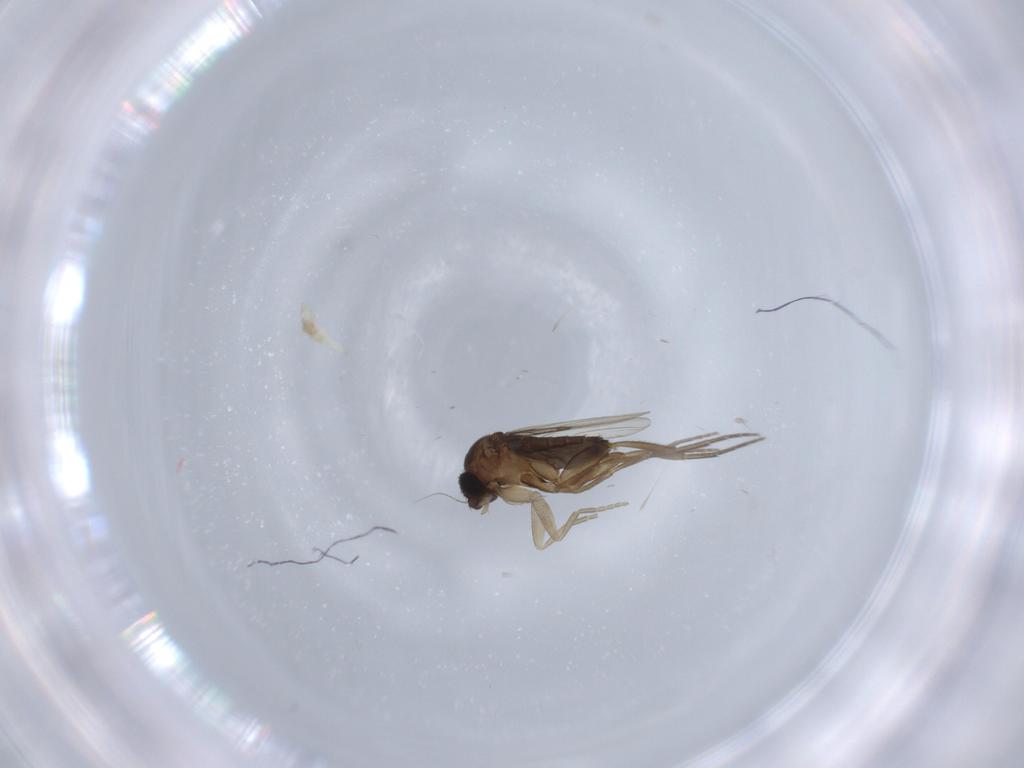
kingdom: Animalia
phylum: Arthropoda
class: Insecta
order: Diptera
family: Phoridae
